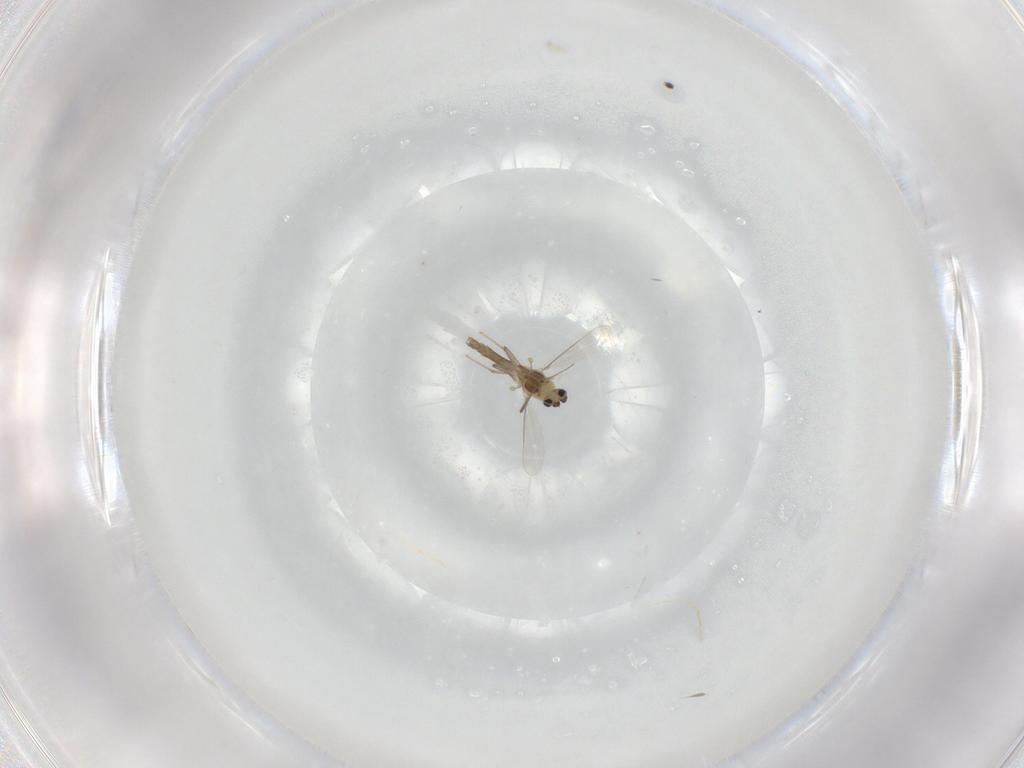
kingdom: Animalia
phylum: Arthropoda
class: Insecta
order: Diptera
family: Chironomidae
